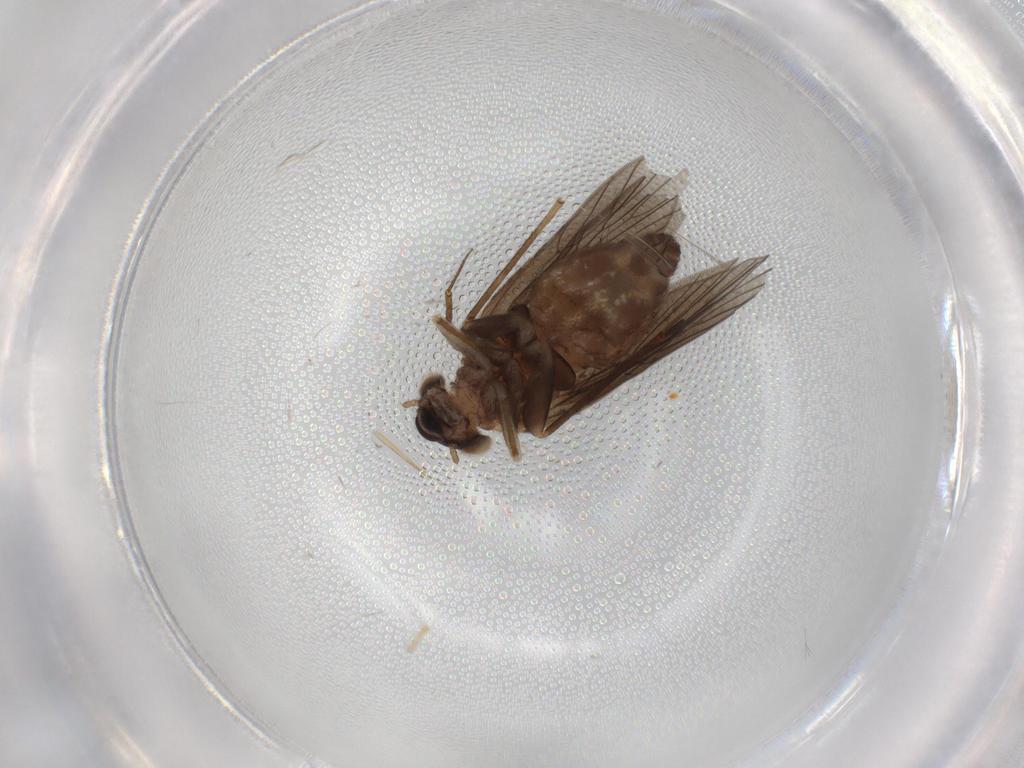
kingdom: Animalia
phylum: Arthropoda
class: Insecta
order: Psocodea
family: Lepidopsocidae
